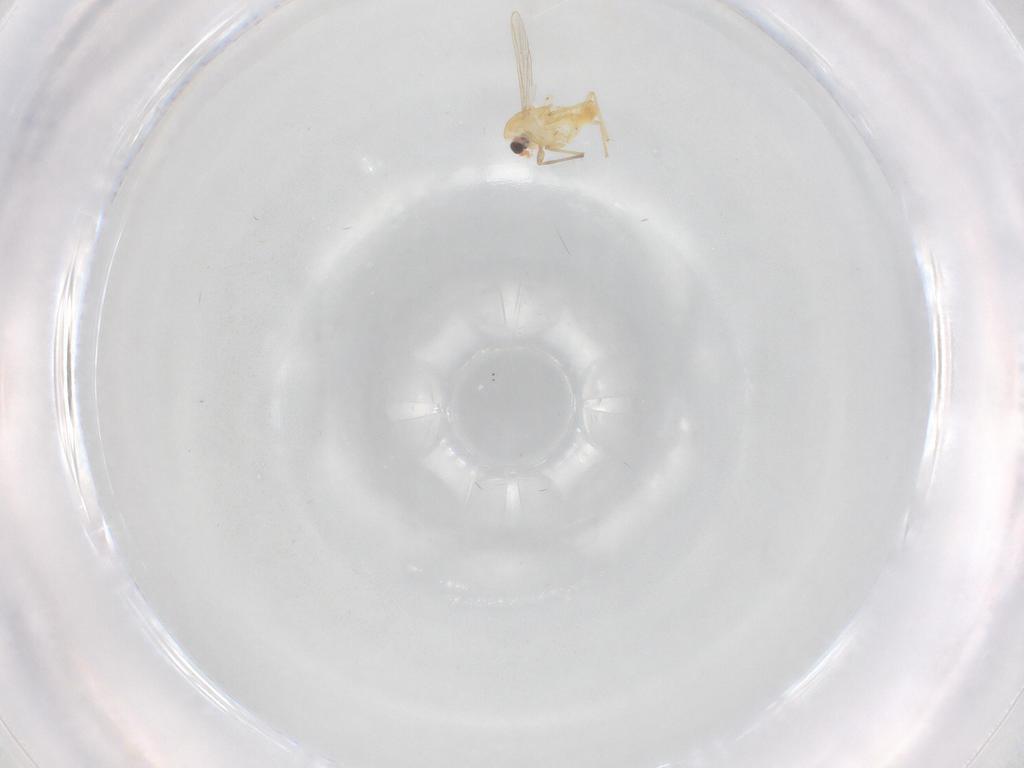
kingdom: Animalia
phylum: Arthropoda
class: Insecta
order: Diptera
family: Chironomidae
